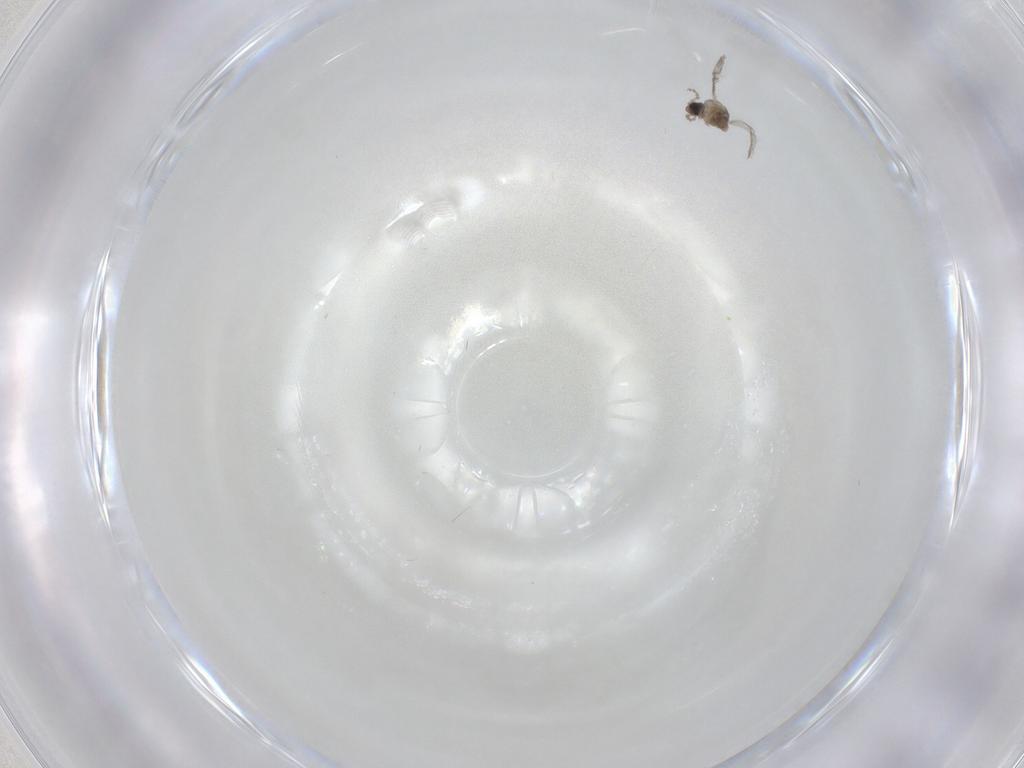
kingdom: Animalia
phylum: Arthropoda
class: Insecta
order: Diptera
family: Cecidomyiidae
